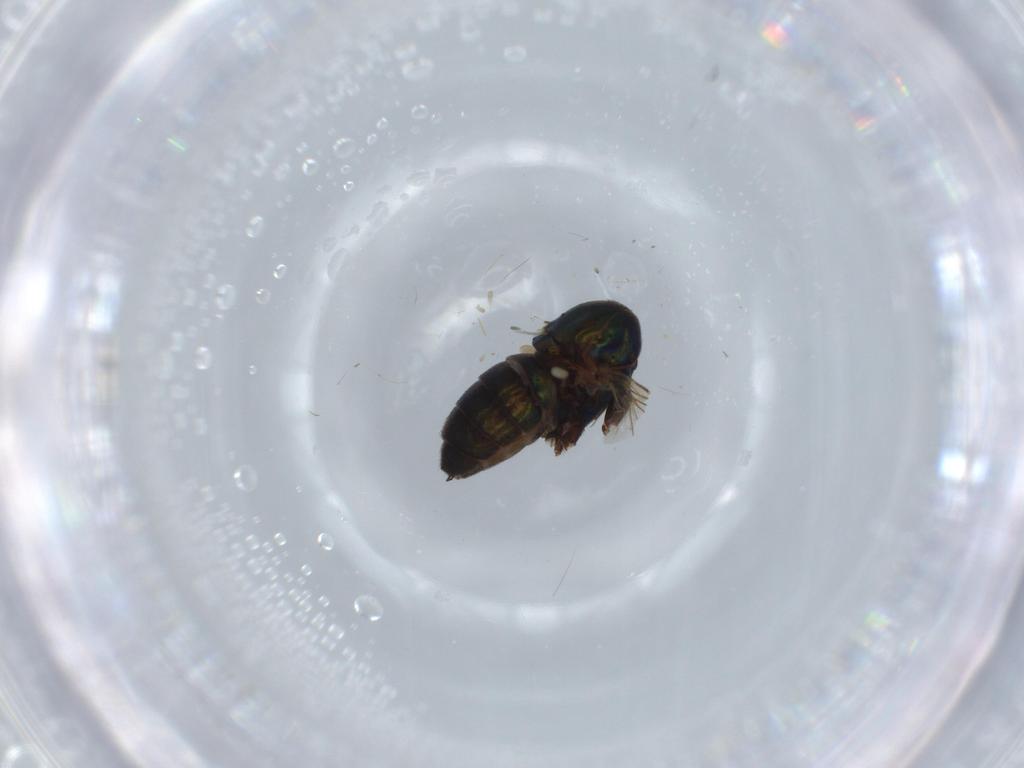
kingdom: Animalia
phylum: Arthropoda
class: Insecta
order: Diptera
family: Dolichopodidae
